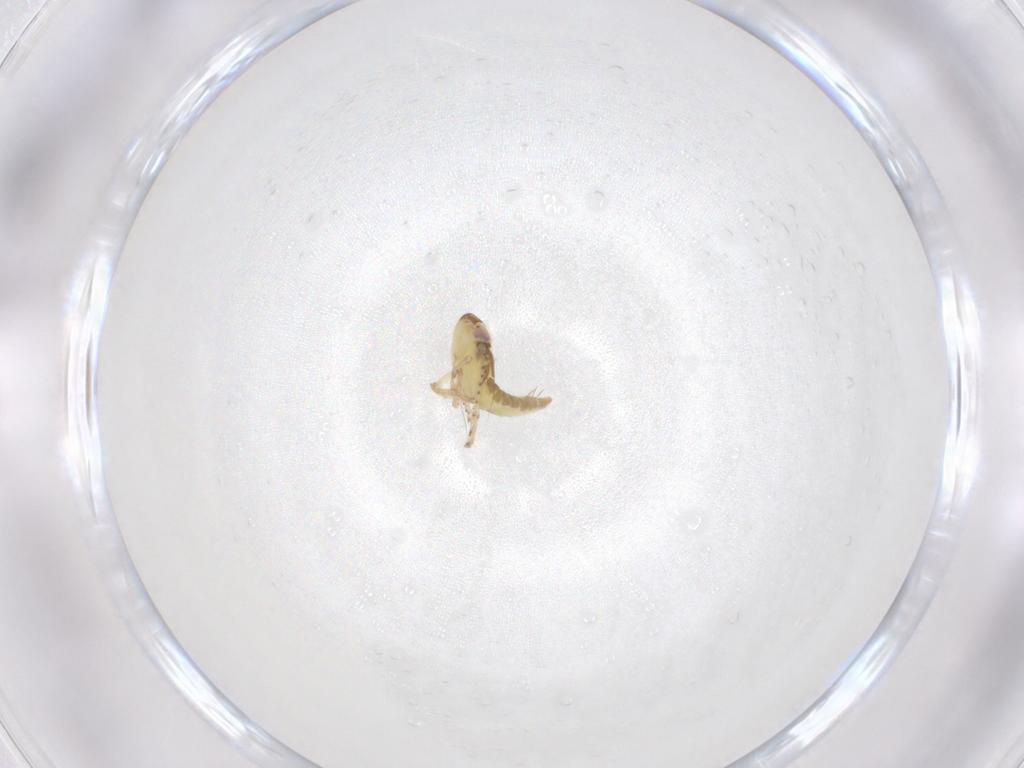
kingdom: Animalia
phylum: Arthropoda
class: Insecta
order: Hemiptera
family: Cicadellidae
